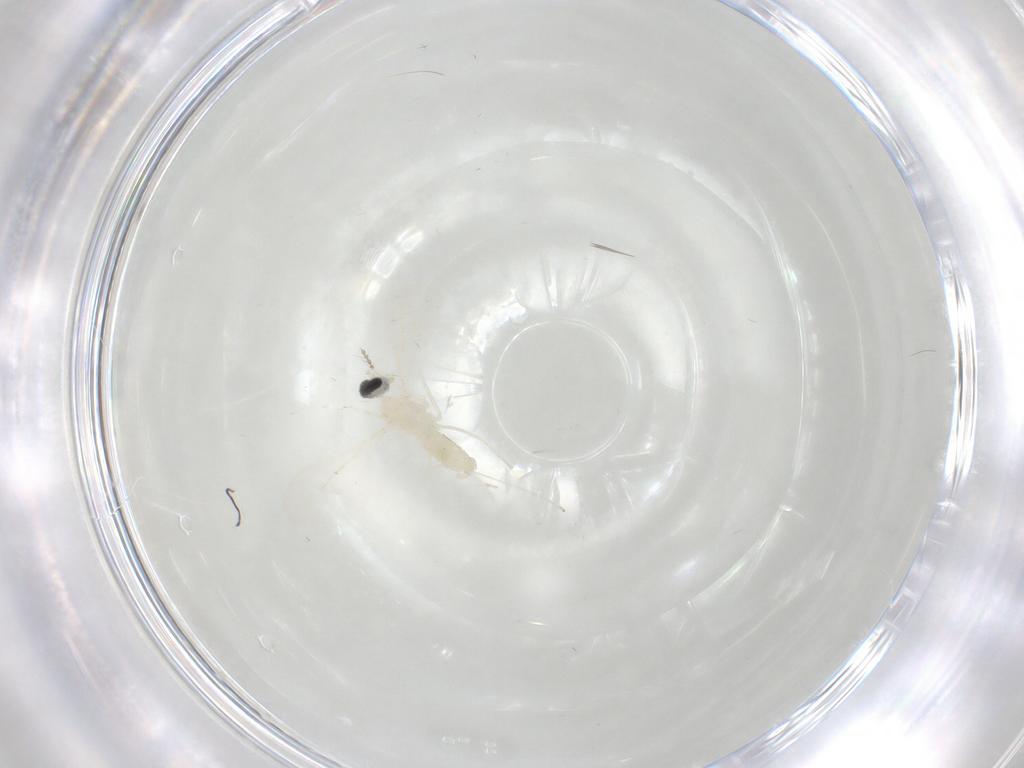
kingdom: Animalia
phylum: Arthropoda
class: Insecta
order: Diptera
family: Cecidomyiidae
